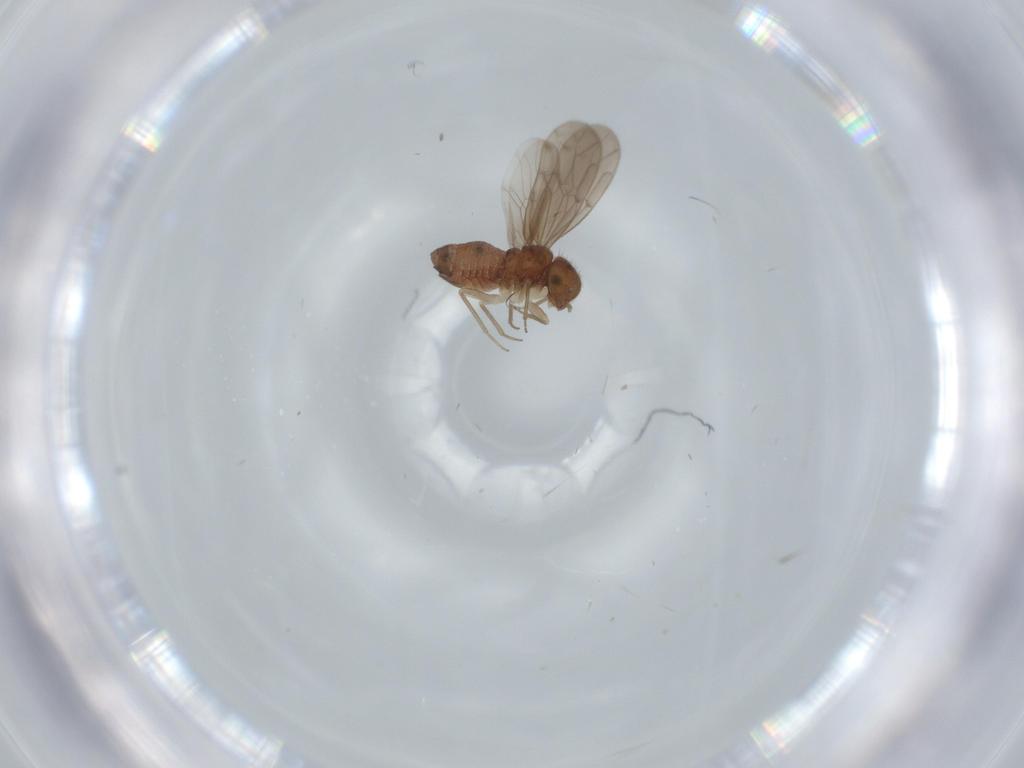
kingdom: Animalia
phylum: Arthropoda
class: Insecta
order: Psocodea
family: Ectopsocidae
